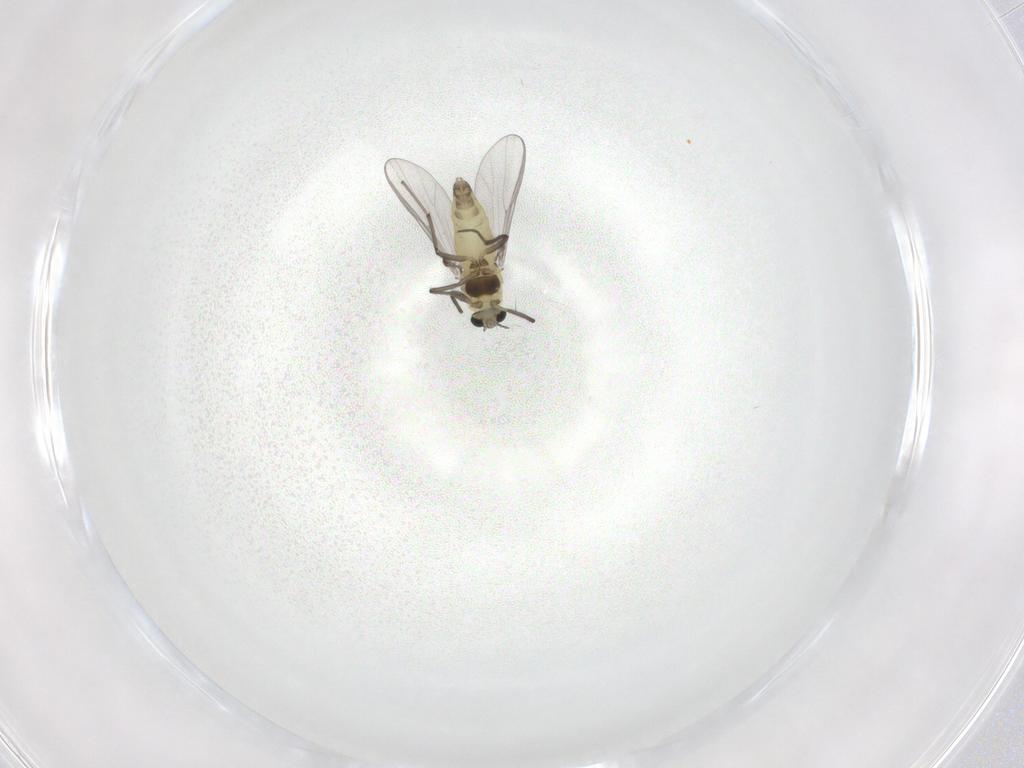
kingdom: Animalia
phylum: Arthropoda
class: Insecta
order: Diptera
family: Chironomidae
